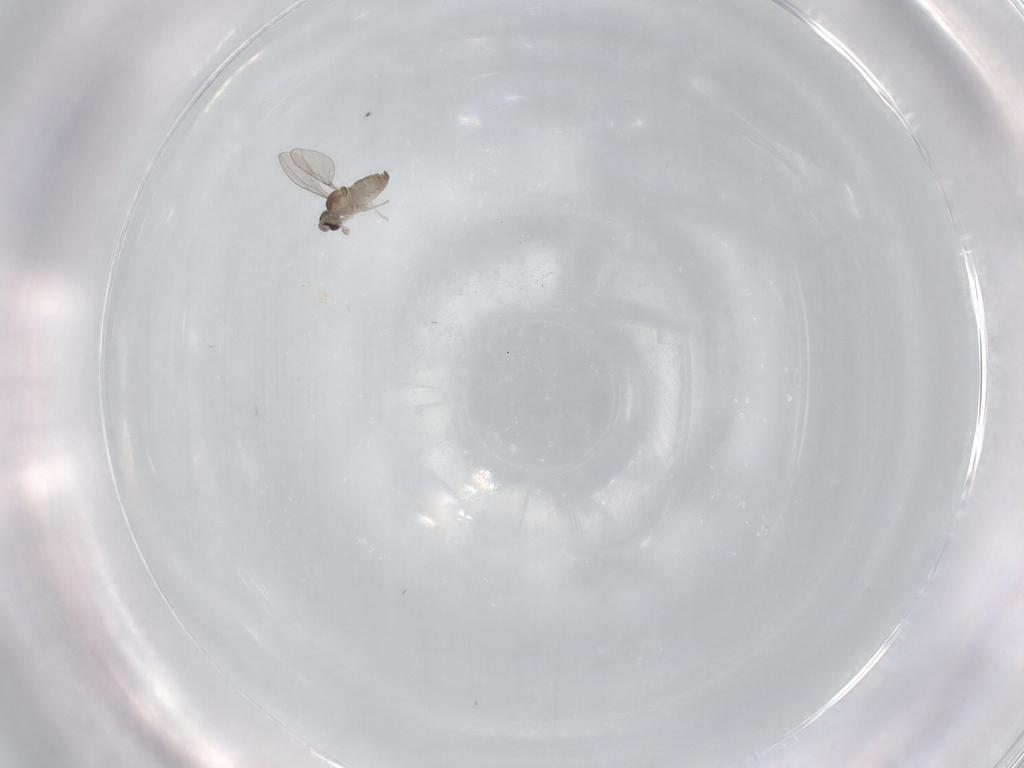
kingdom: Animalia
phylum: Arthropoda
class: Insecta
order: Diptera
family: Cecidomyiidae
